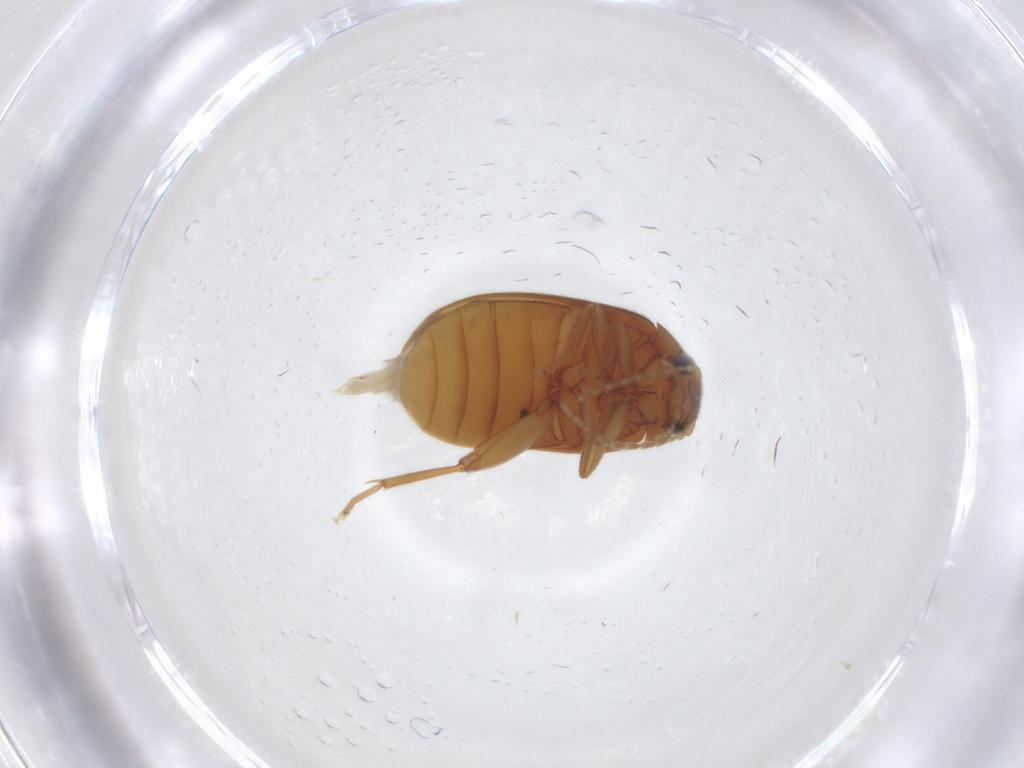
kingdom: Animalia
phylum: Arthropoda
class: Insecta
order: Coleoptera
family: Scirtidae
